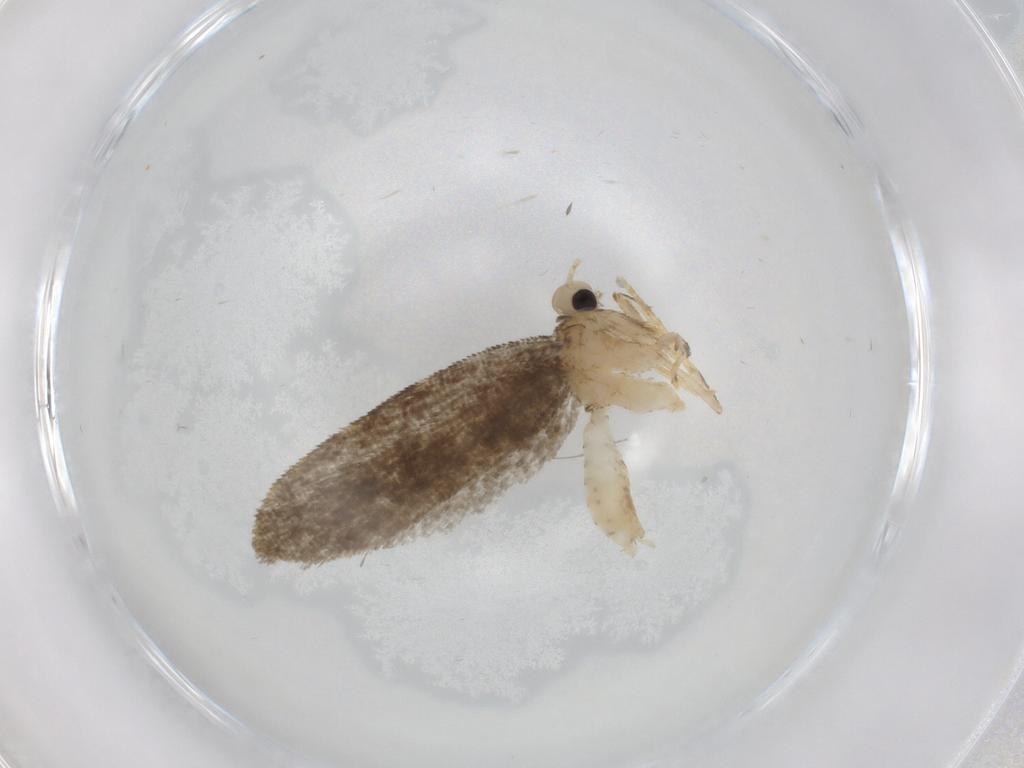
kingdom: Animalia
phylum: Arthropoda
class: Insecta
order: Lepidoptera
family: Psychidae
